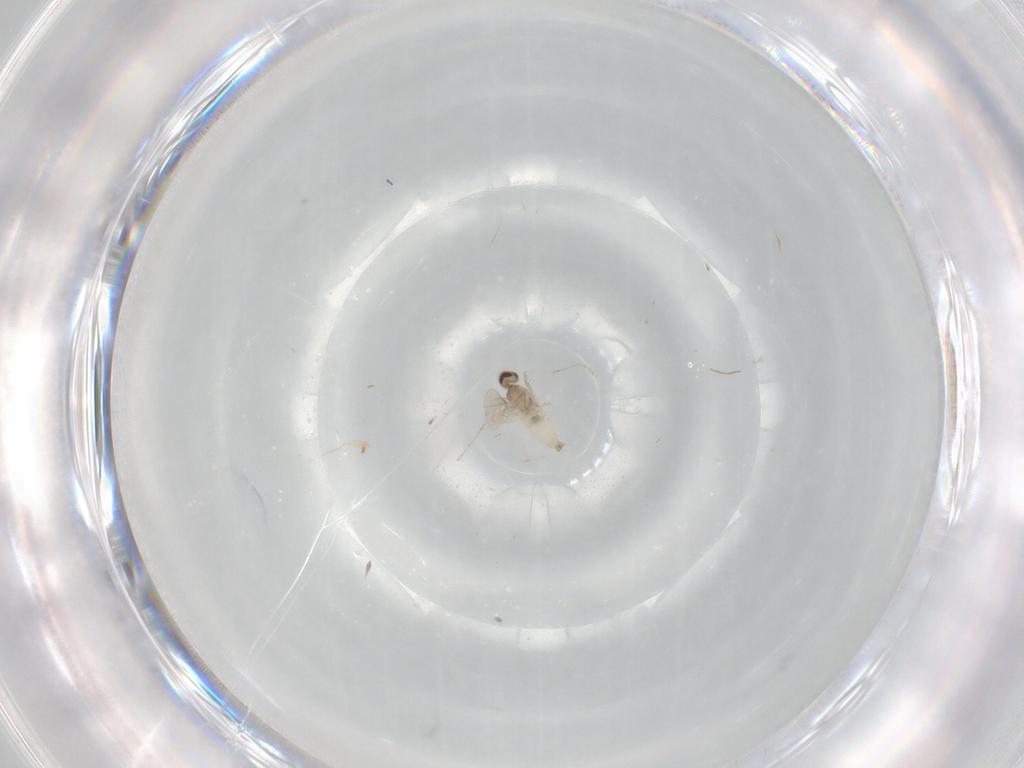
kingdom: Animalia
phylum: Arthropoda
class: Insecta
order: Diptera
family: Cecidomyiidae
